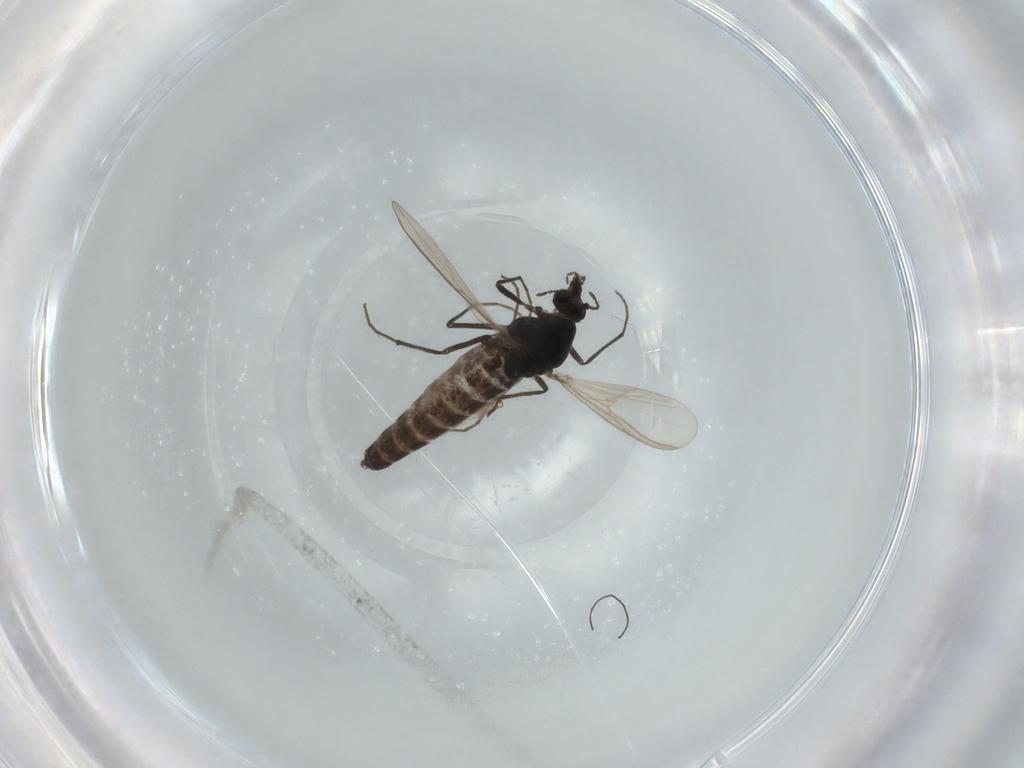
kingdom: Animalia
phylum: Arthropoda
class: Insecta
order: Diptera
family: Chironomidae
